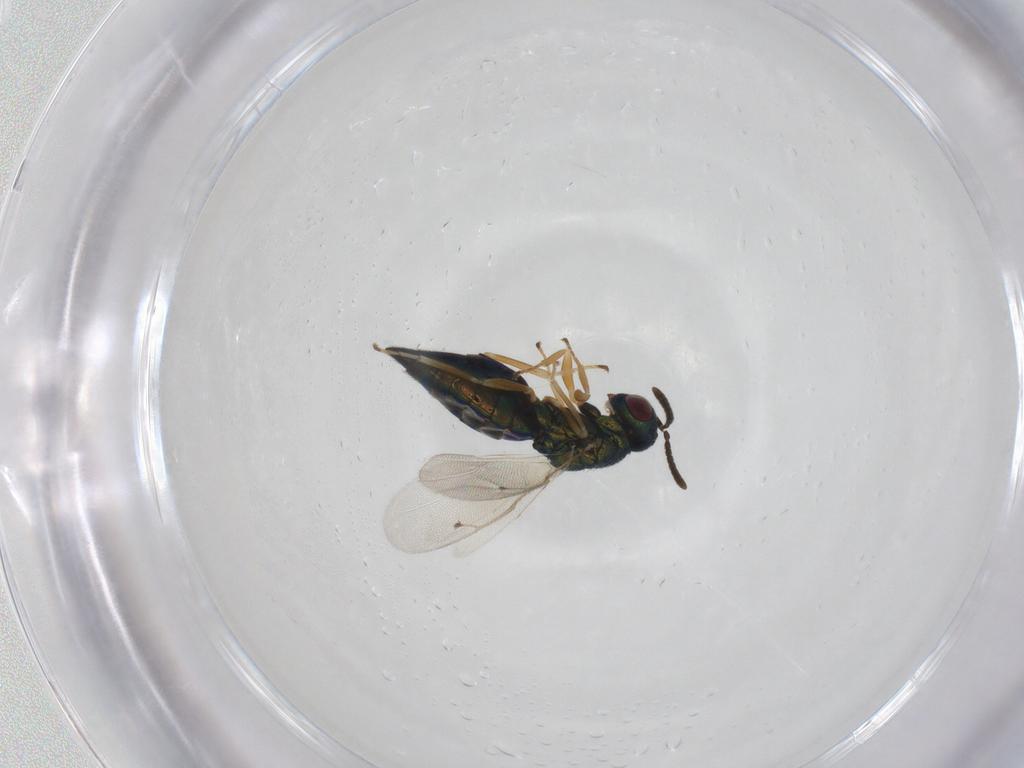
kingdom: Animalia
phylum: Arthropoda
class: Insecta
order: Hymenoptera
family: Pteromalidae
